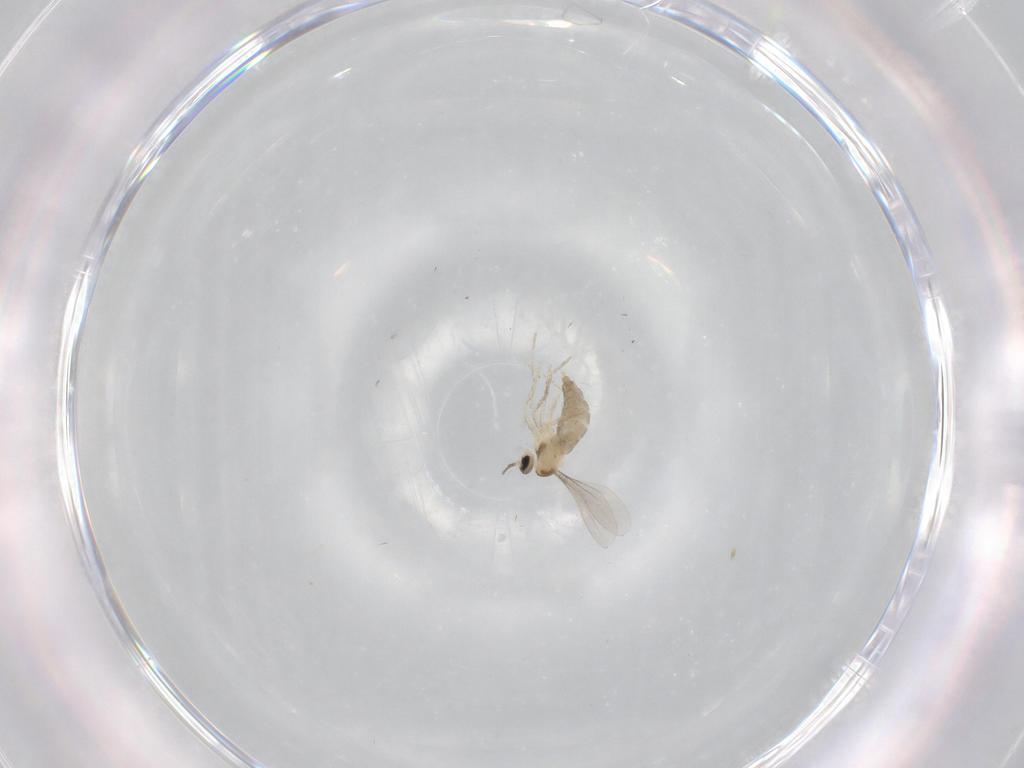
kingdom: Animalia
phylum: Arthropoda
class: Insecta
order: Diptera
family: Cecidomyiidae
